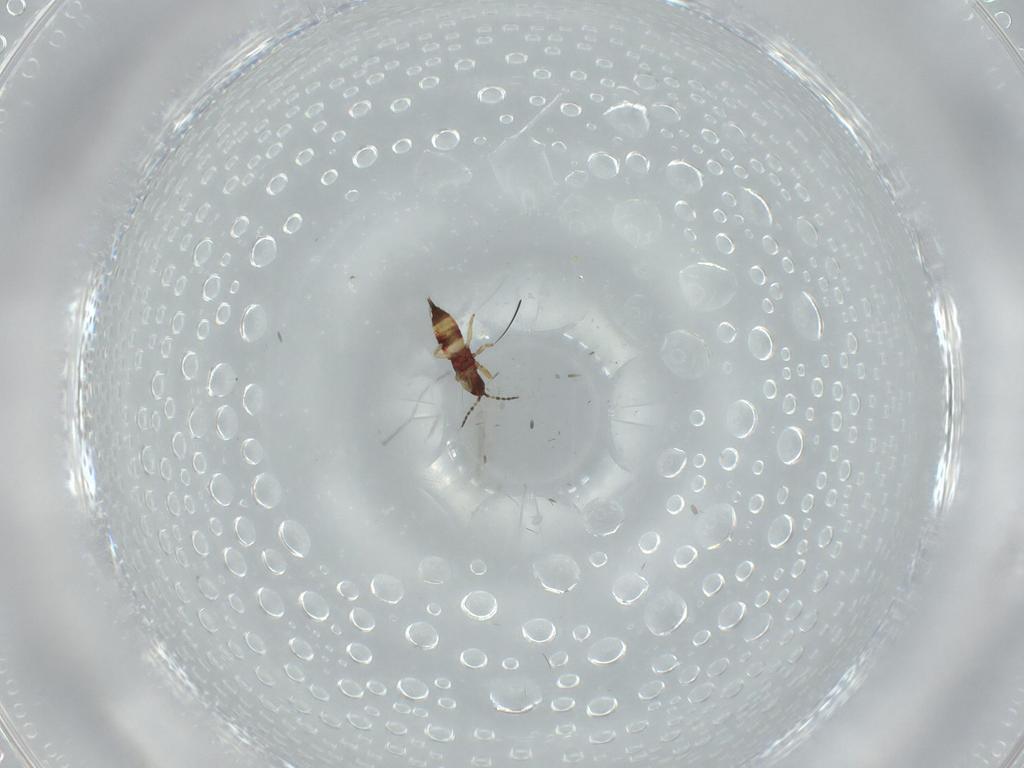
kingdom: Animalia
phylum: Arthropoda
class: Insecta
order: Thysanoptera
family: Phlaeothripidae
